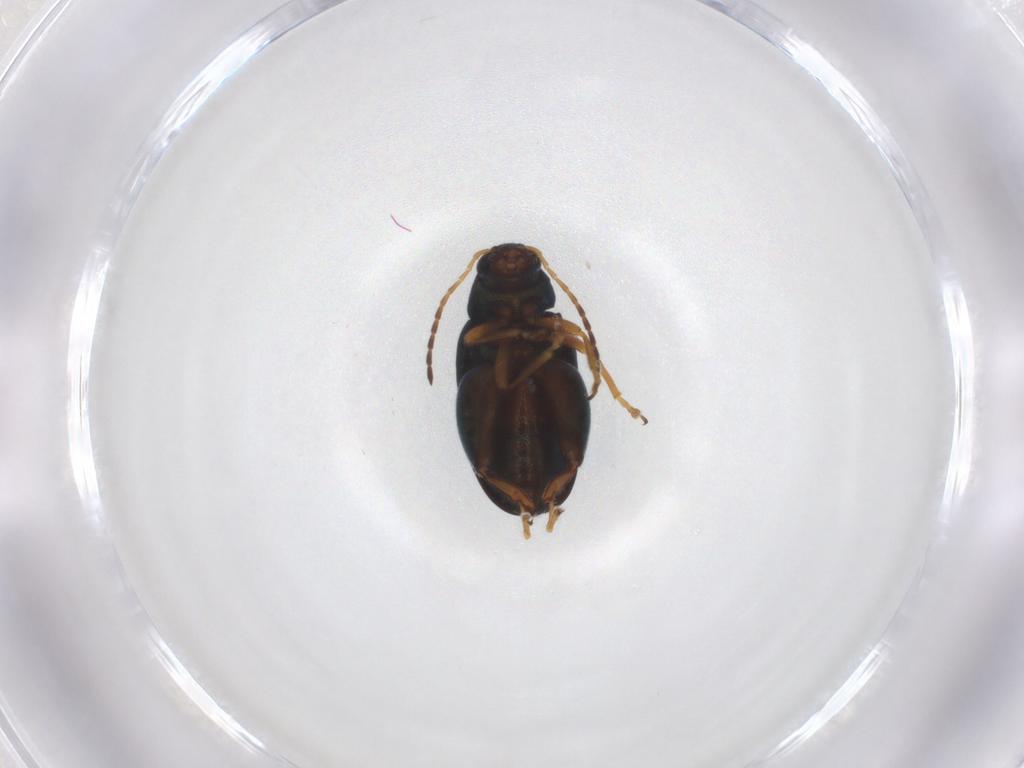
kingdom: Animalia
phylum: Arthropoda
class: Insecta
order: Coleoptera
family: Chrysomelidae
